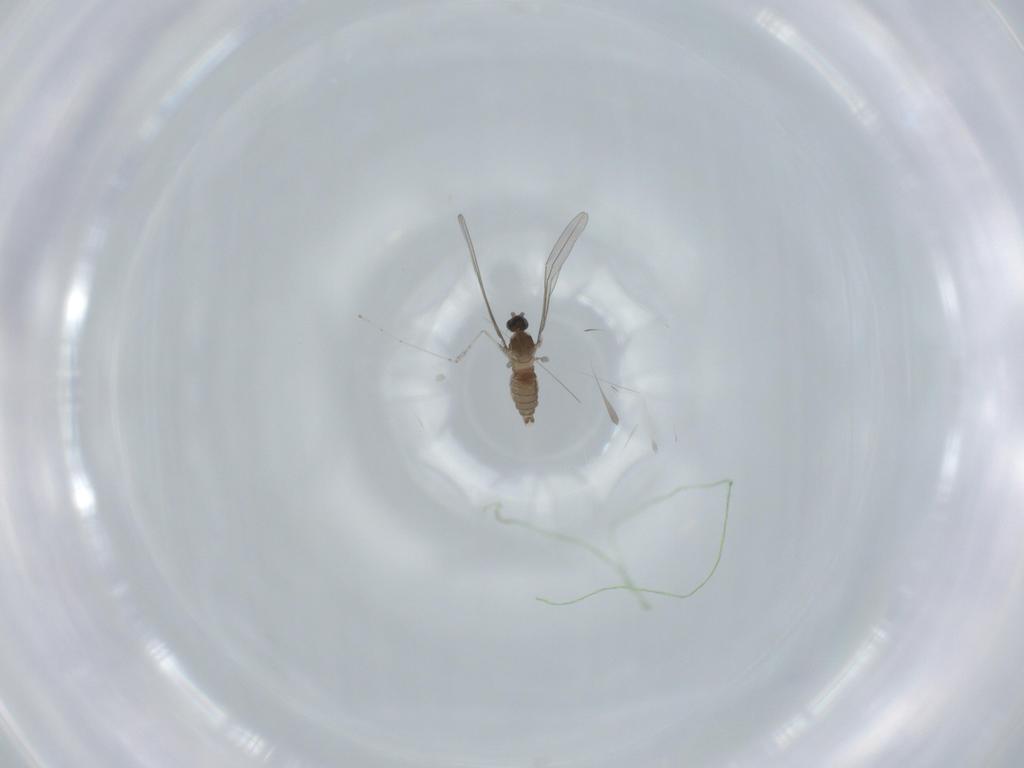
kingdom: Animalia
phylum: Arthropoda
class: Insecta
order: Diptera
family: Cecidomyiidae
